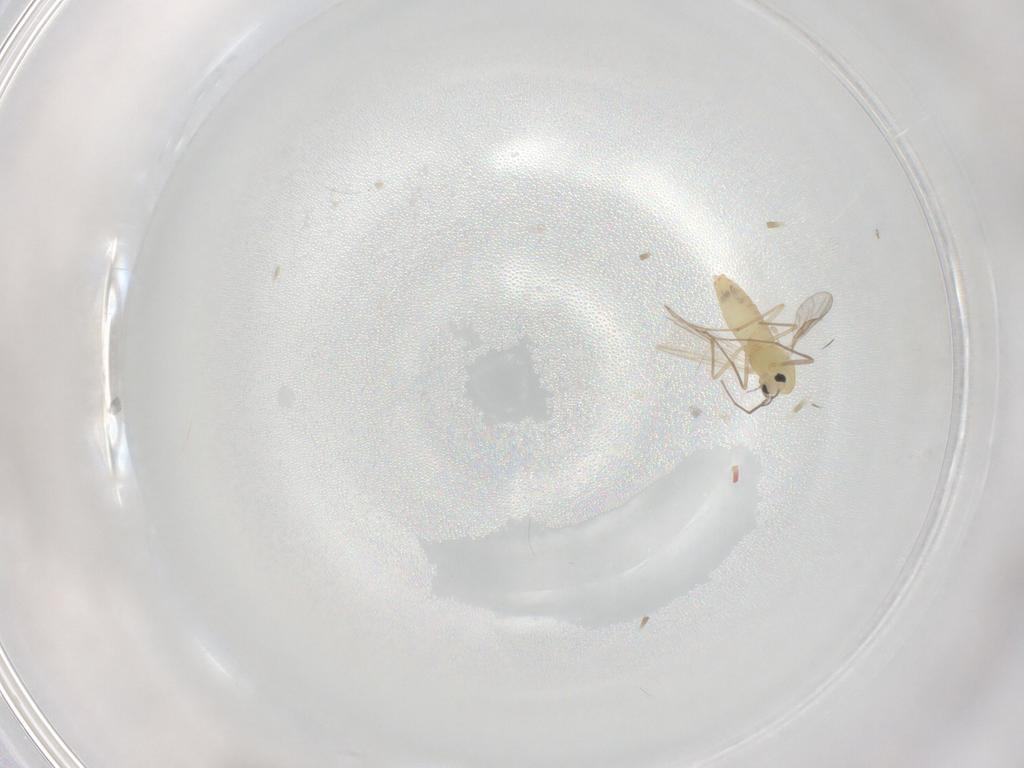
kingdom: Animalia
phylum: Arthropoda
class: Insecta
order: Diptera
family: Chironomidae
